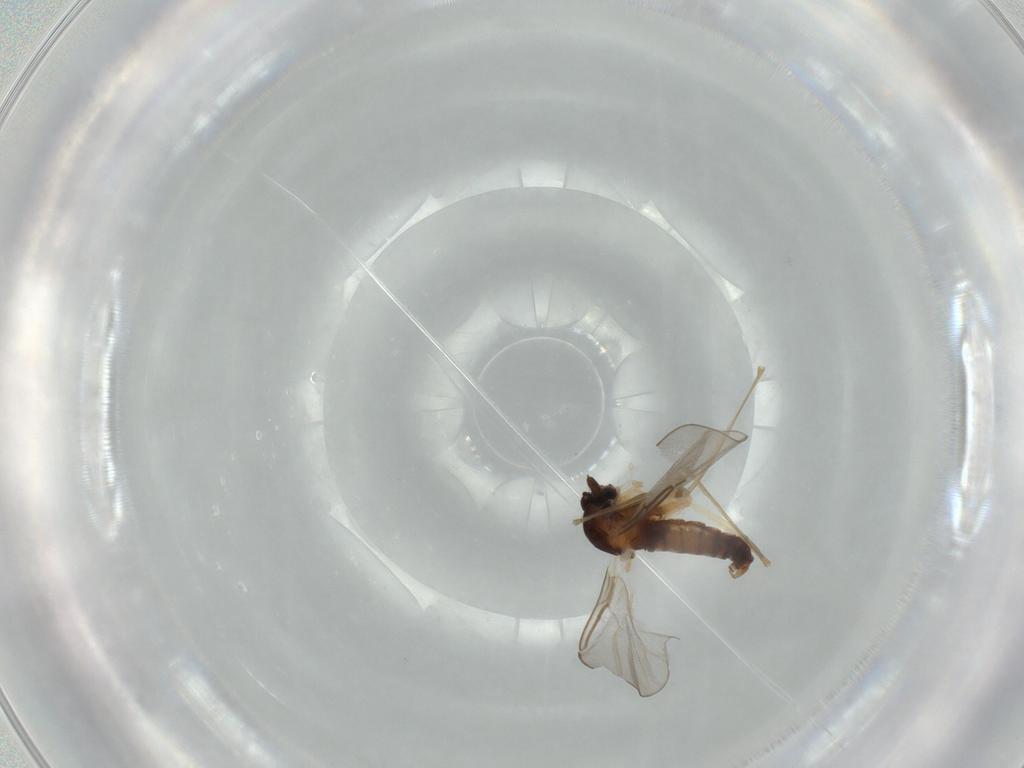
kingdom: Animalia
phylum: Arthropoda
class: Insecta
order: Diptera
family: Cecidomyiidae
